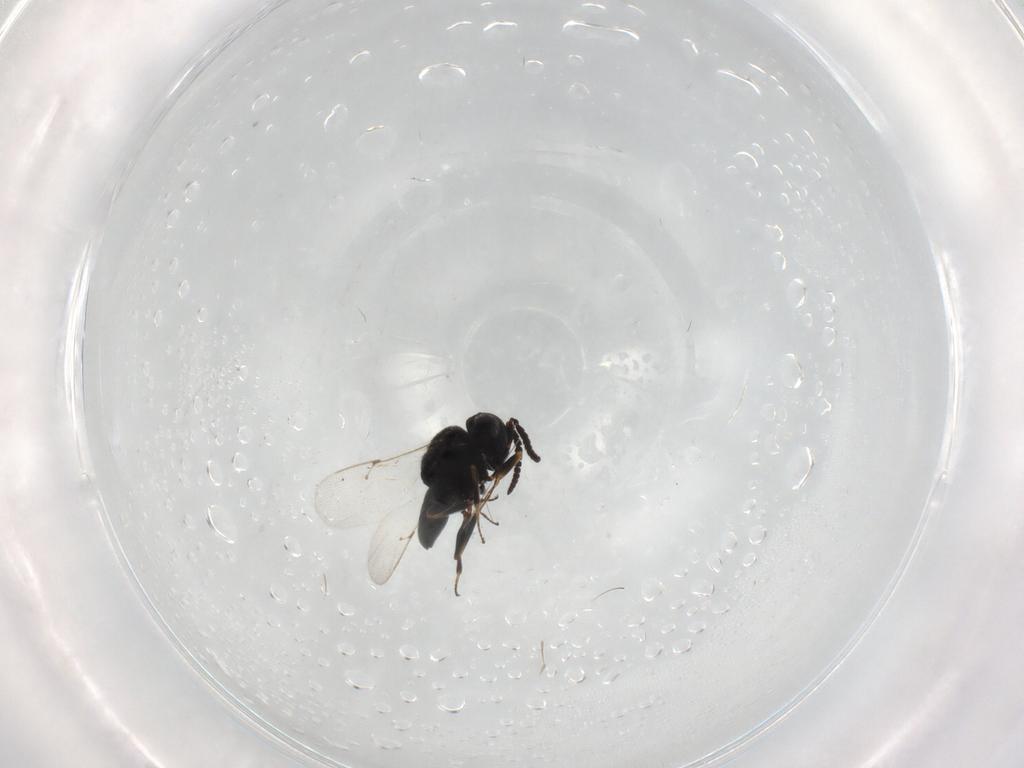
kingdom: Animalia
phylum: Arthropoda
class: Insecta
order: Hymenoptera
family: Scelionidae
